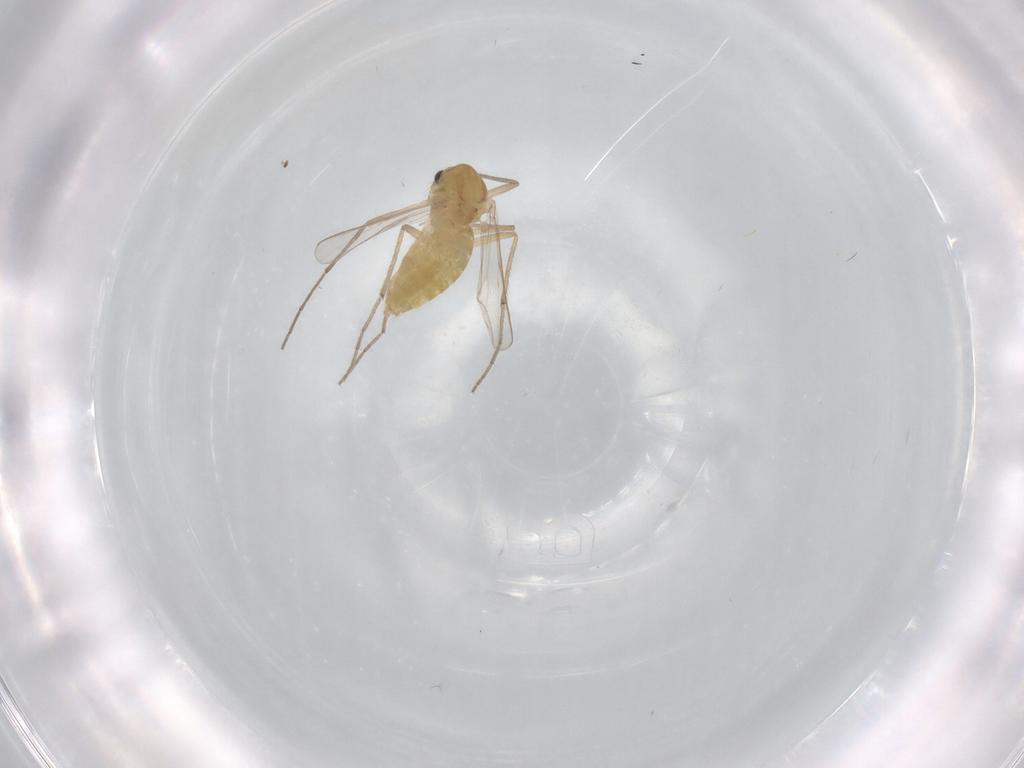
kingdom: Animalia
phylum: Arthropoda
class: Insecta
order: Diptera
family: Chironomidae
